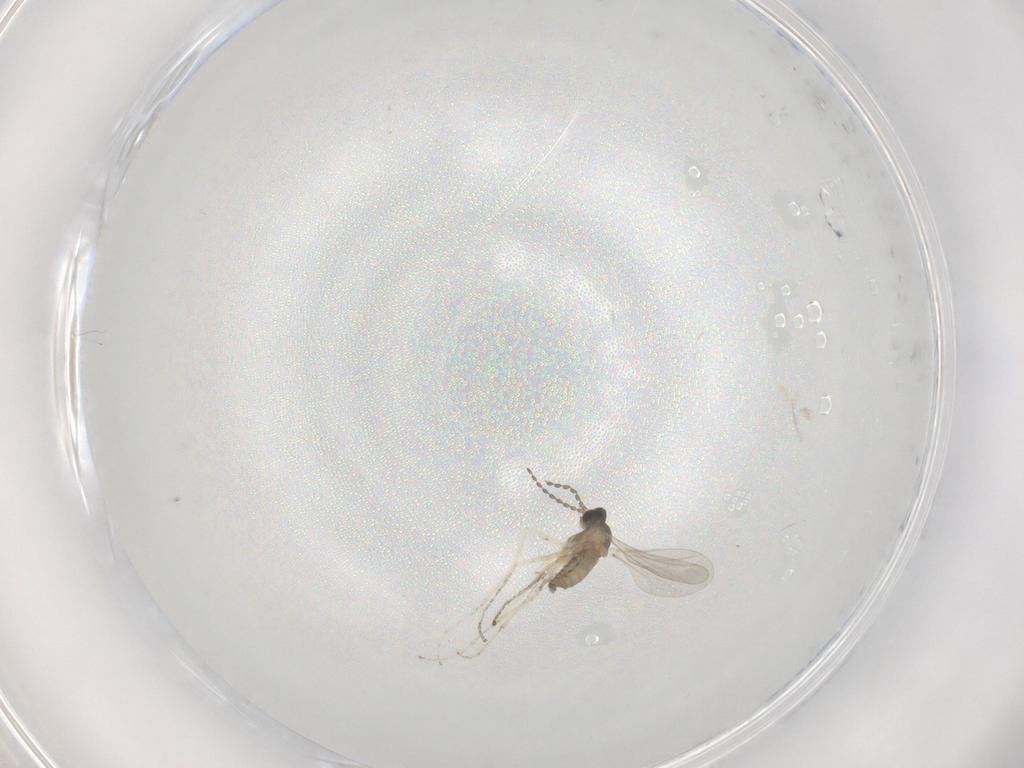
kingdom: Animalia
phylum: Arthropoda
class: Insecta
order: Diptera
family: Cecidomyiidae
